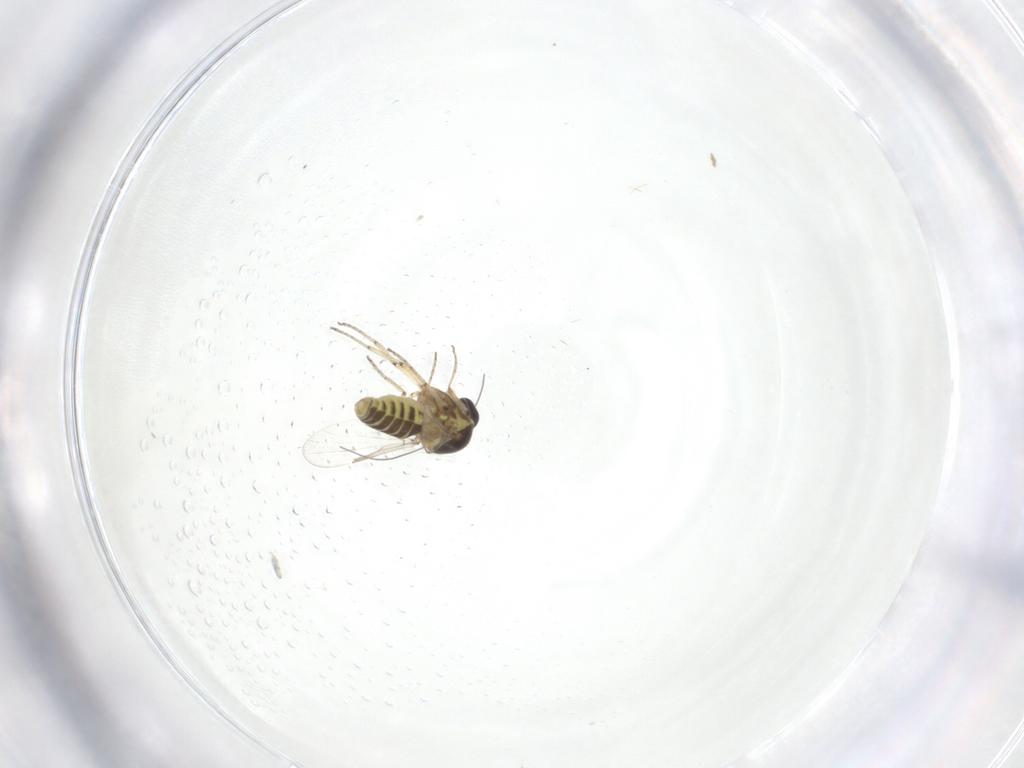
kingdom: Animalia
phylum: Arthropoda
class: Insecta
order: Diptera
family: Ceratopogonidae
